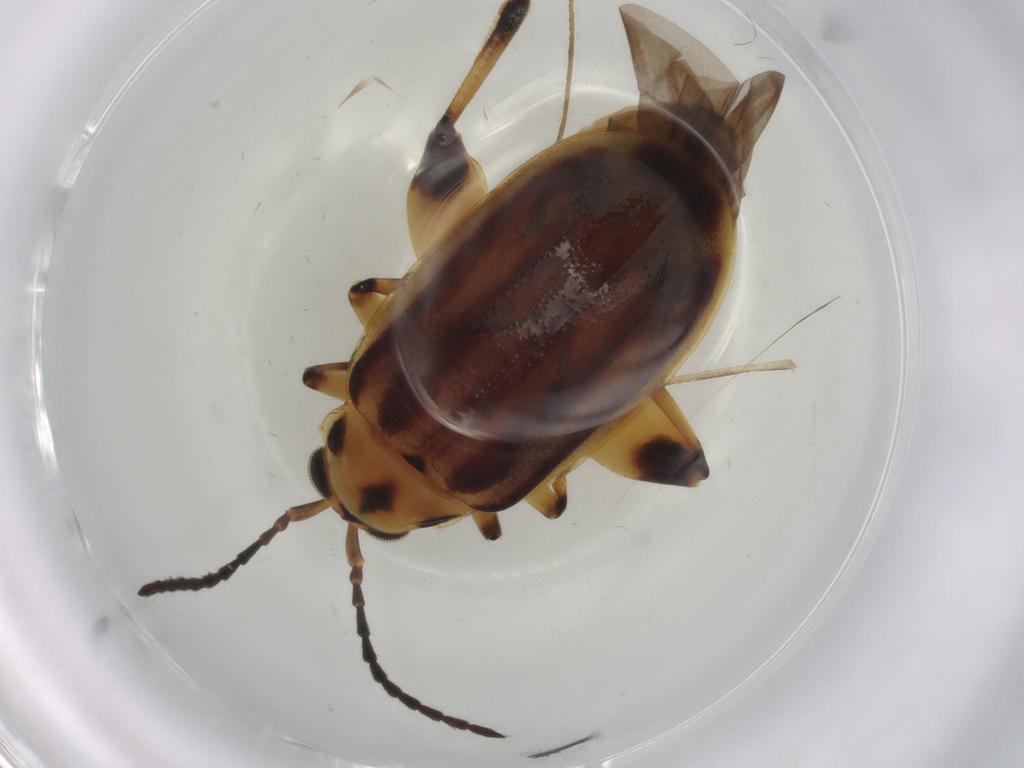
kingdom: Animalia
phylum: Arthropoda
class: Insecta
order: Coleoptera
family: Chrysomelidae
